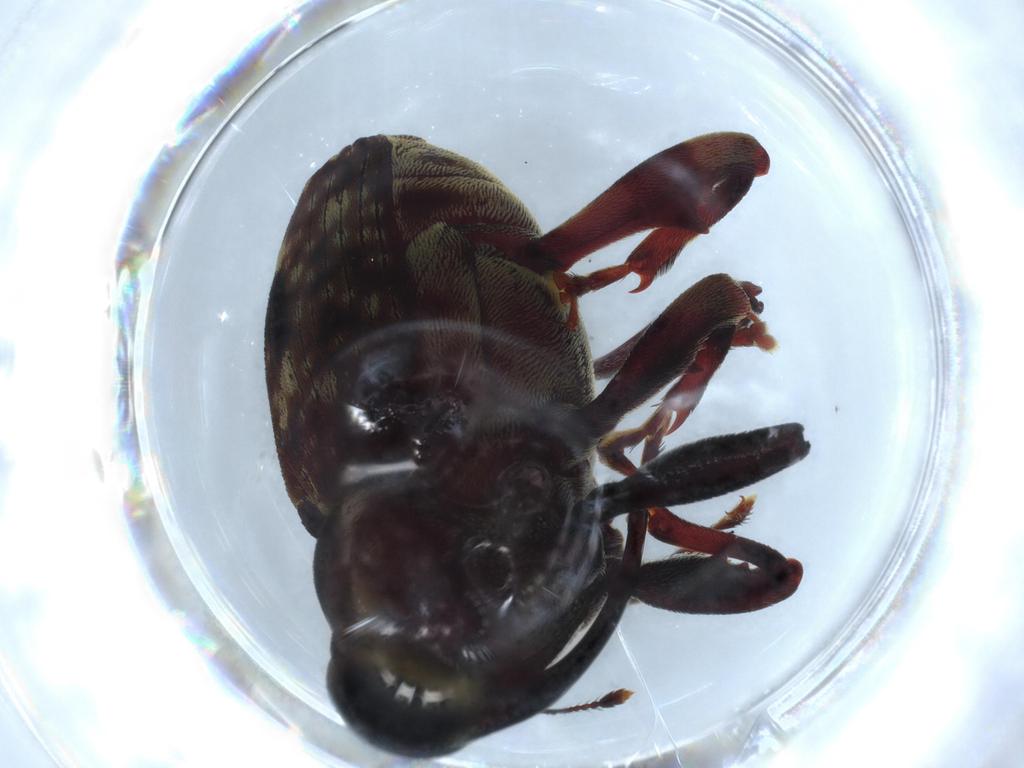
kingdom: Animalia
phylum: Arthropoda
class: Insecta
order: Coleoptera
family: Curculionidae
